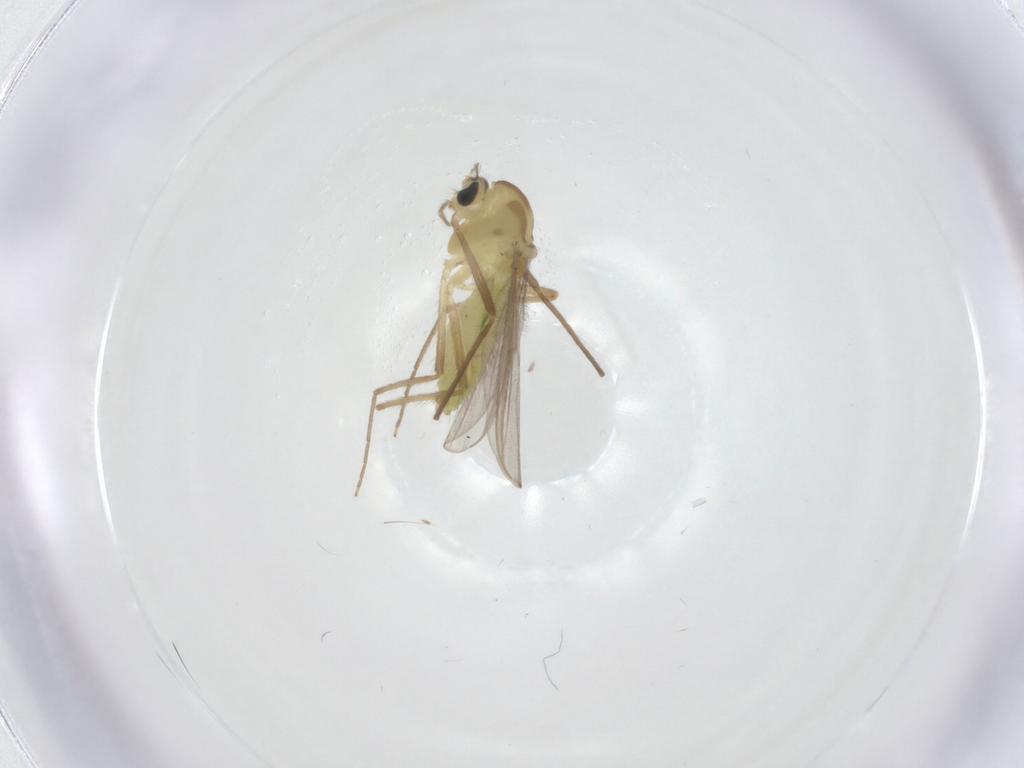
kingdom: Animalia
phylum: Arthropoda
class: Insecta
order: Diptera
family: Chironomidae
